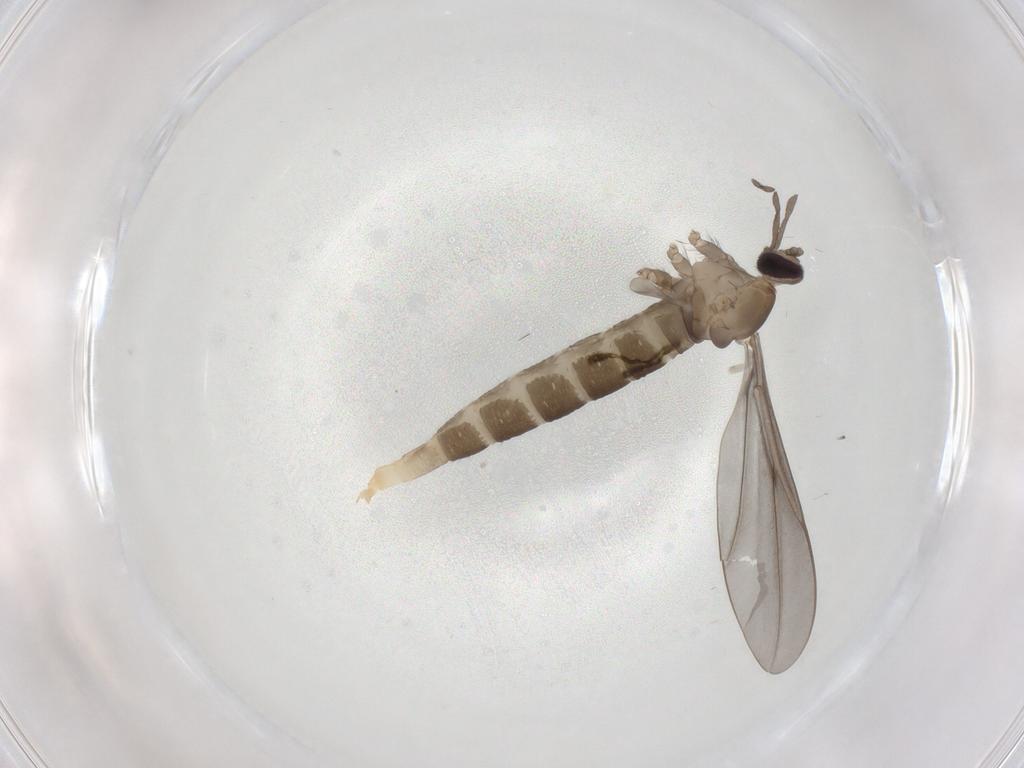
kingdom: Animalia
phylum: Arthropoda
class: Insecta
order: Diptera
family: Cecidomyiidae
